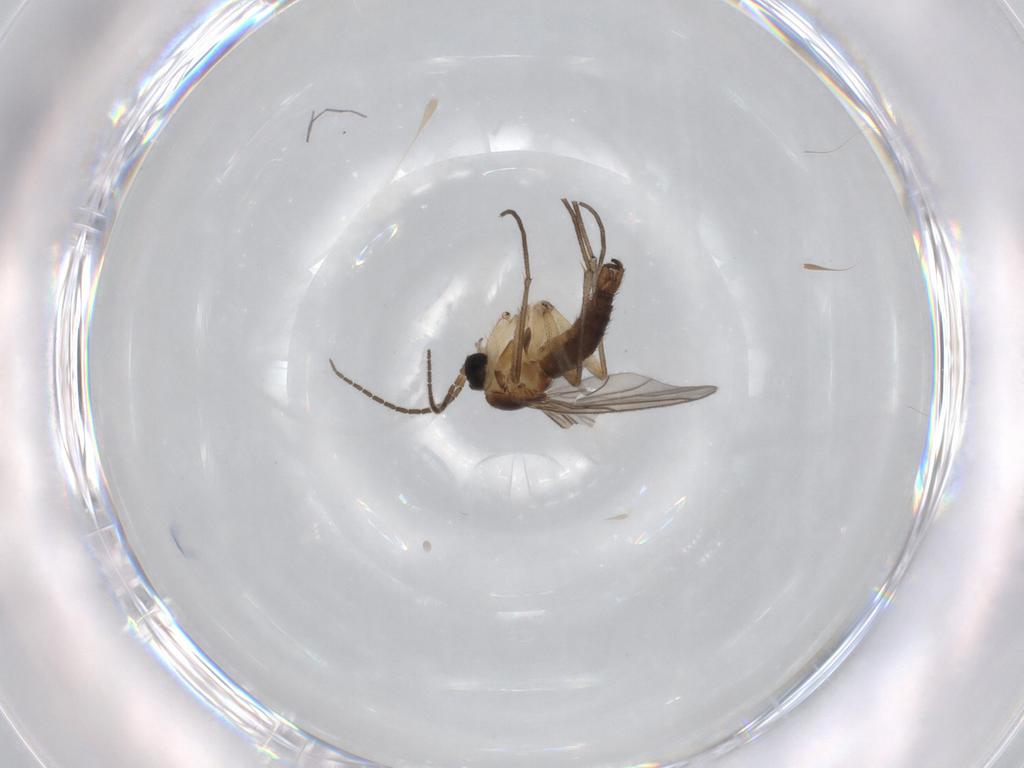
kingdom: Animalia
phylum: Arthropoda
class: Insecta
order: Diptera
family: Sciaridae
